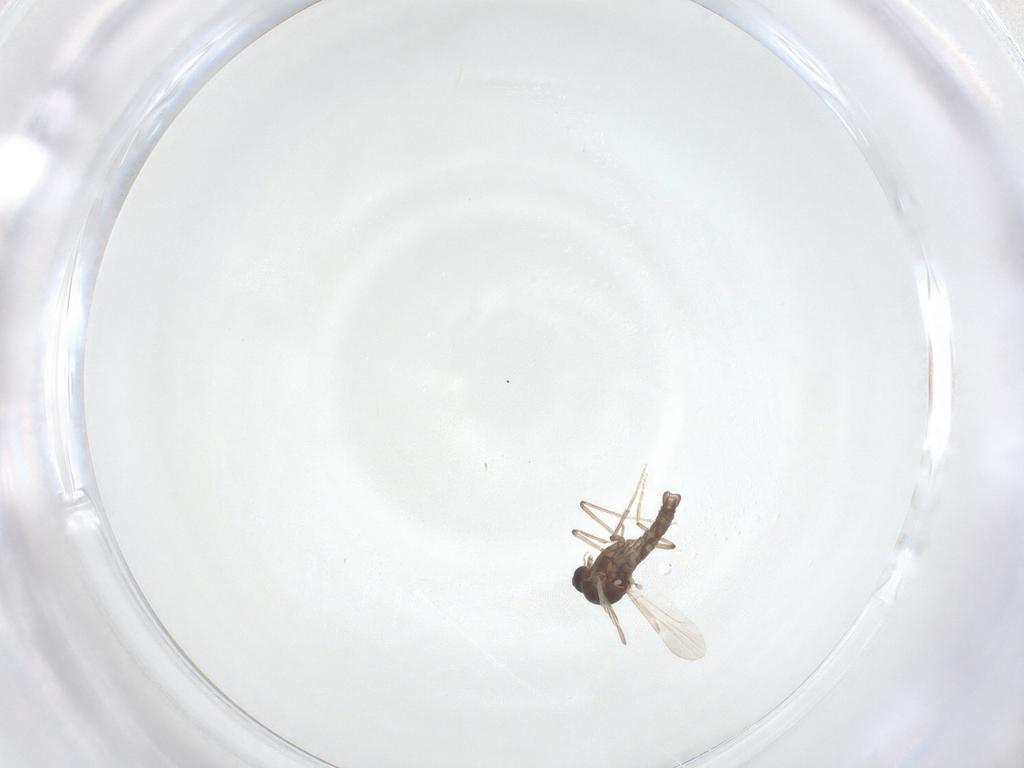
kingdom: Animalia
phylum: Arthropoda
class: Insecta
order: Diptera
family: Ceratopogonidae
